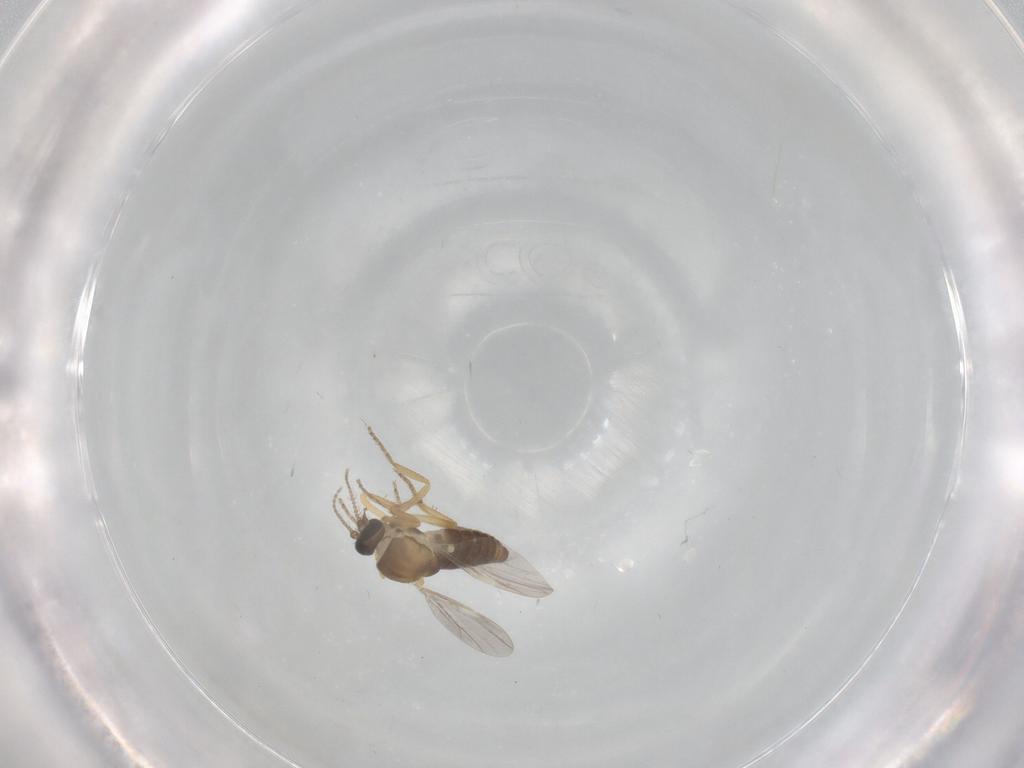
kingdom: Animalia
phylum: Arthropoda
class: Insecta
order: Diptera
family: Ceratopogonidae
